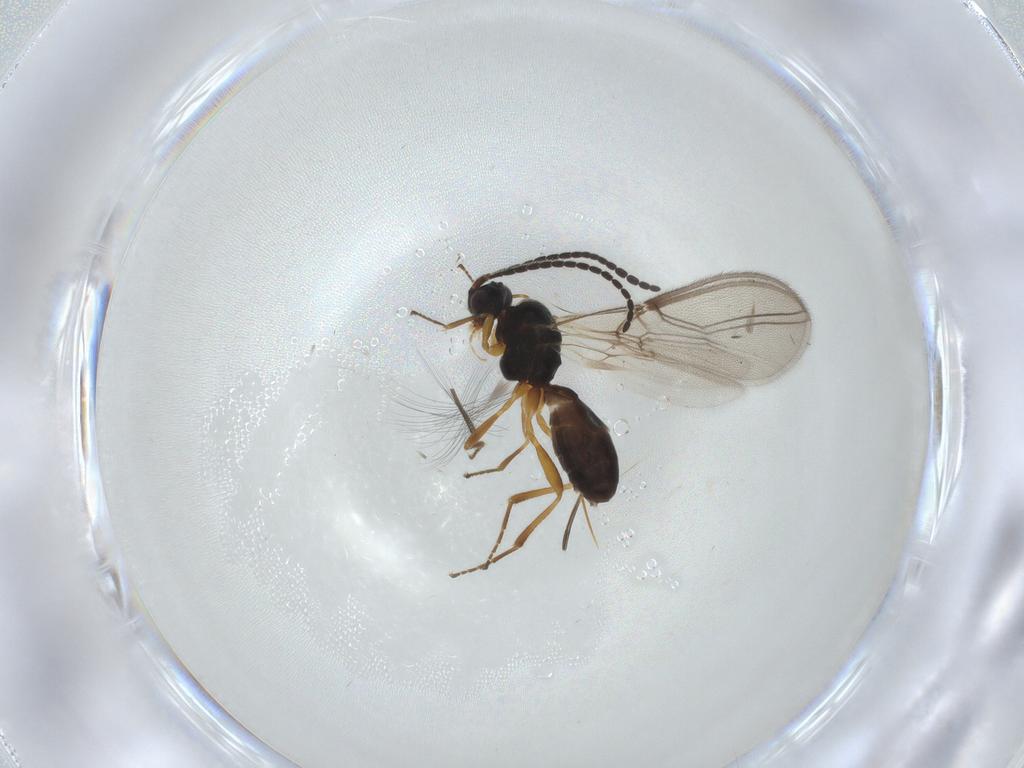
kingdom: Animalia
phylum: Arthropoda
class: Insecta
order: Hymenoptera
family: Braconidae
